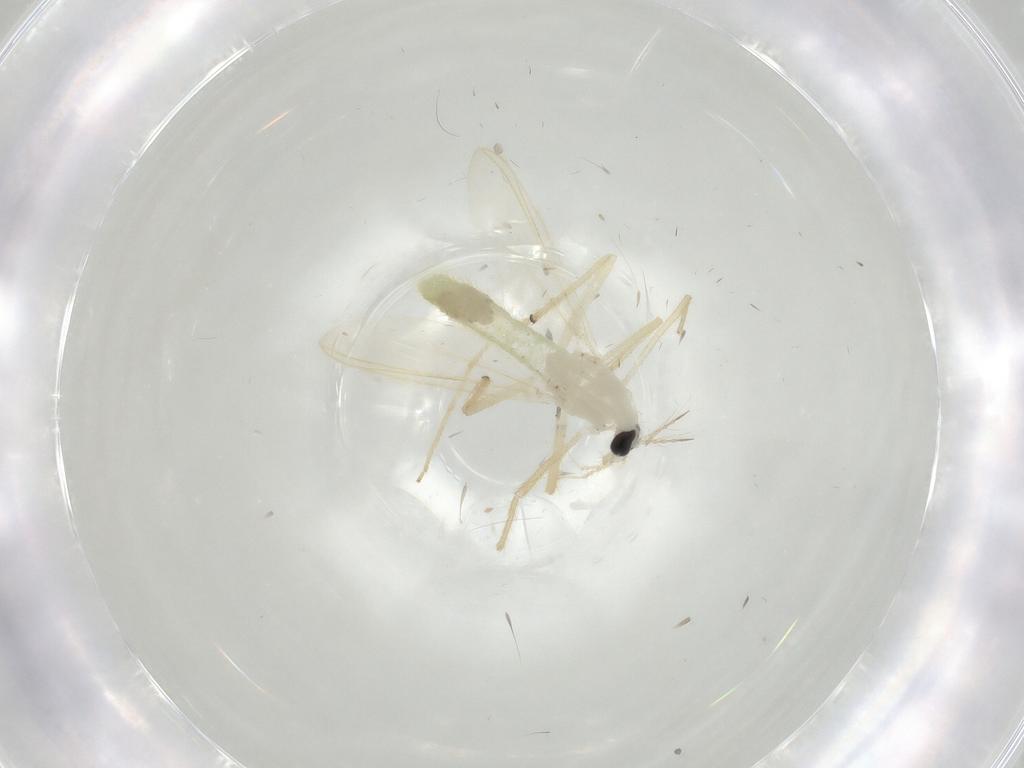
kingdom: Animalia
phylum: Arthropoda
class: Insecta
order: Diptera
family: Chironomidae
